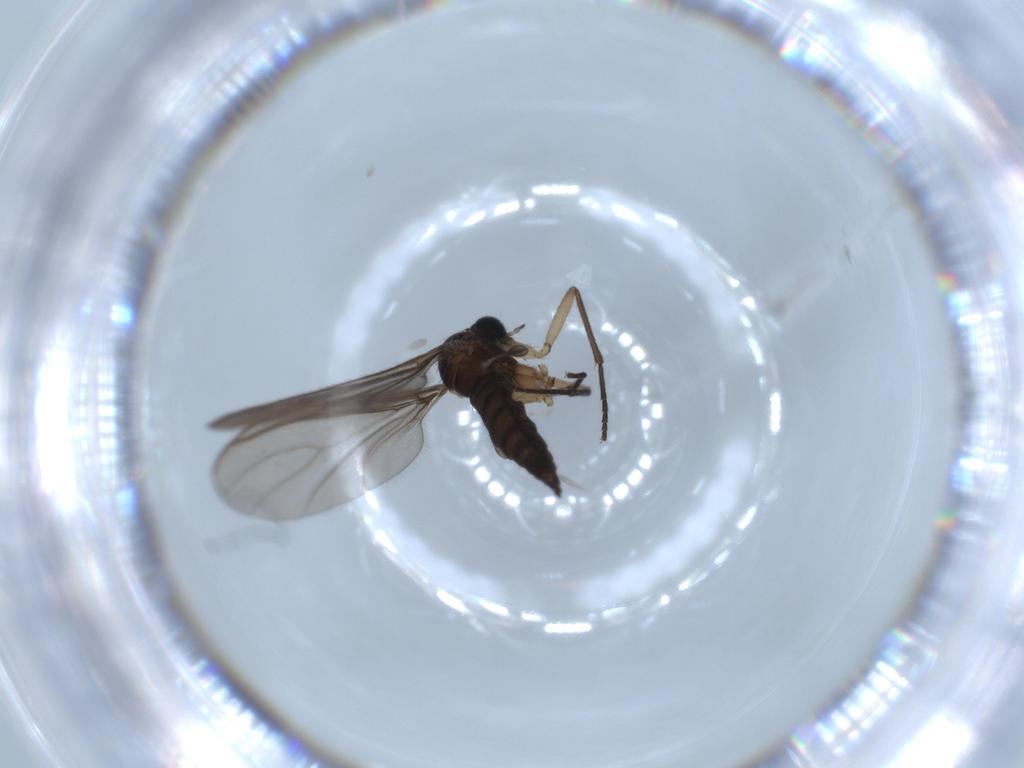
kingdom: Animalia
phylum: Arthropoda
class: Insecta
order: Diptera
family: Sciaridae
